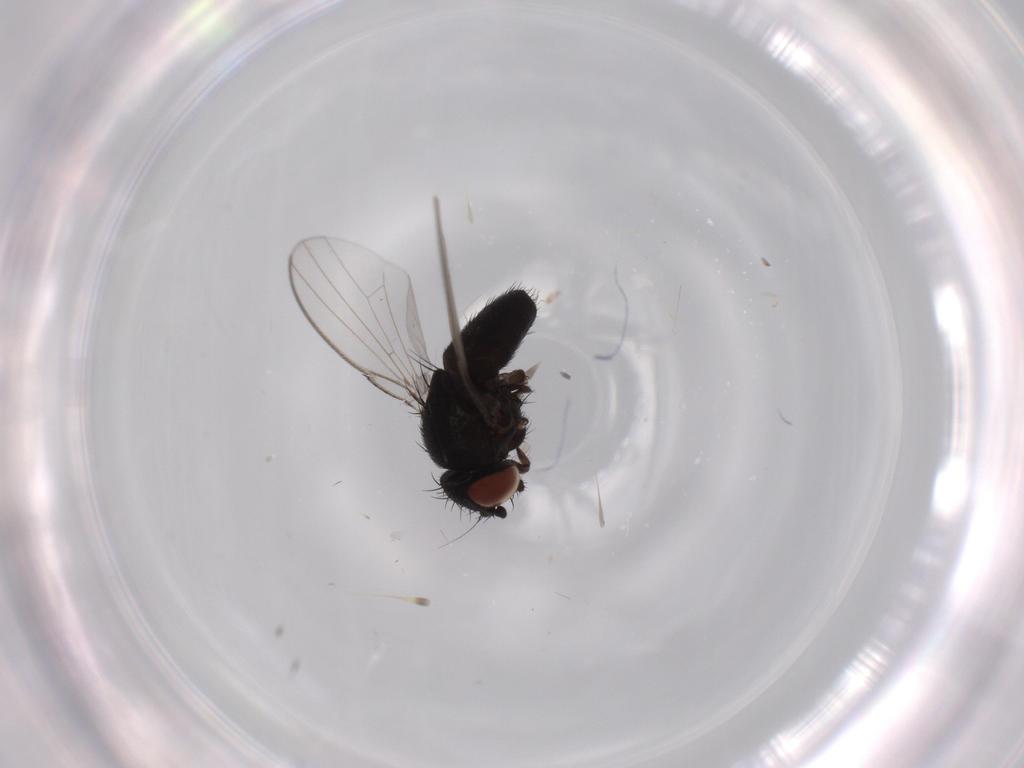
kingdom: Animalia
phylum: Arthropoda
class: Insecta
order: Diptera
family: Milichiidae
